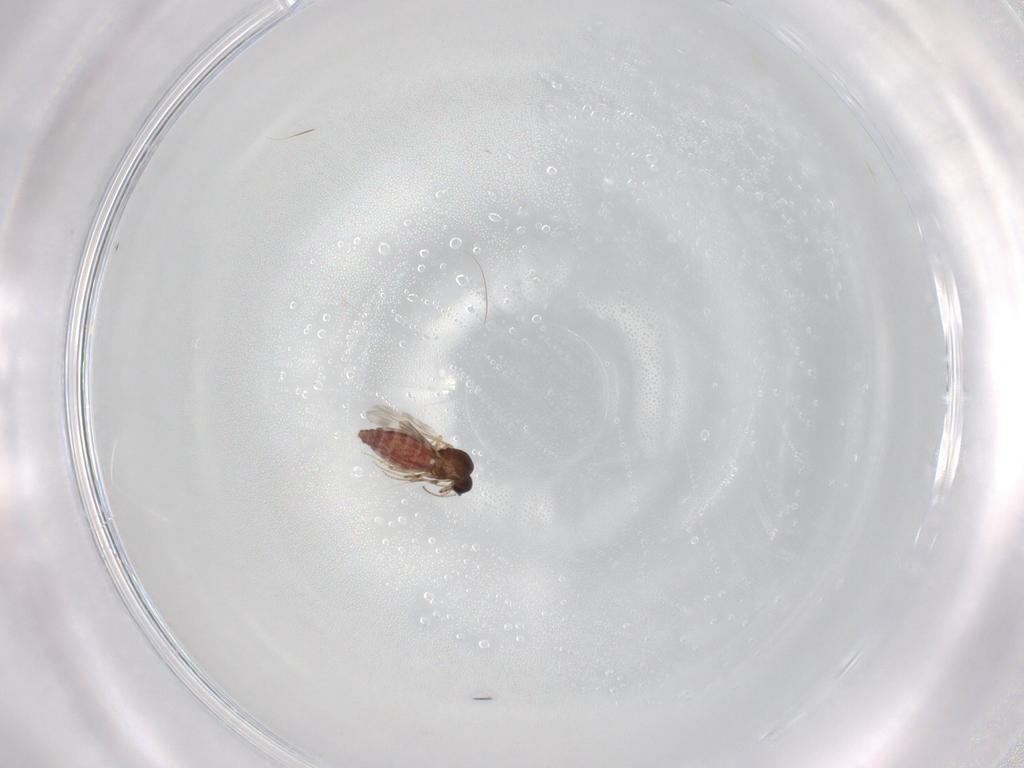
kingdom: Animalia
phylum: Arthropoda
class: Insecta
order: Diptera
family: Ceratopogonidae
